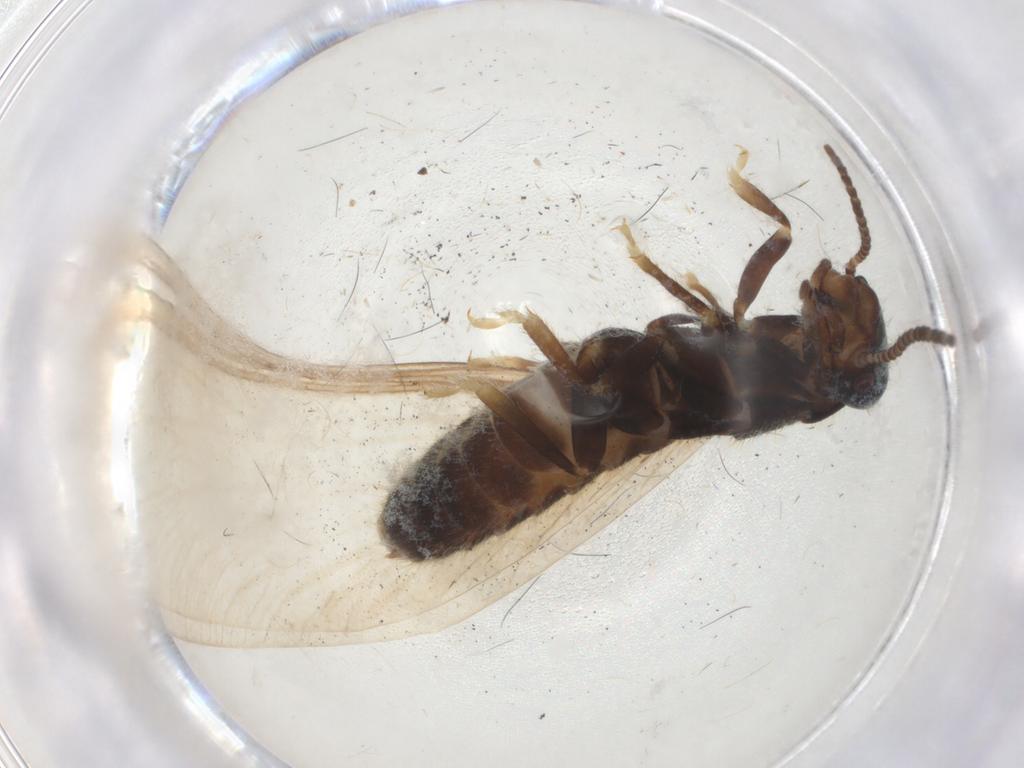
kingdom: Animalia
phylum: Arthropoda
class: Insecta
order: Blattodea
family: Rhinotermitidae
